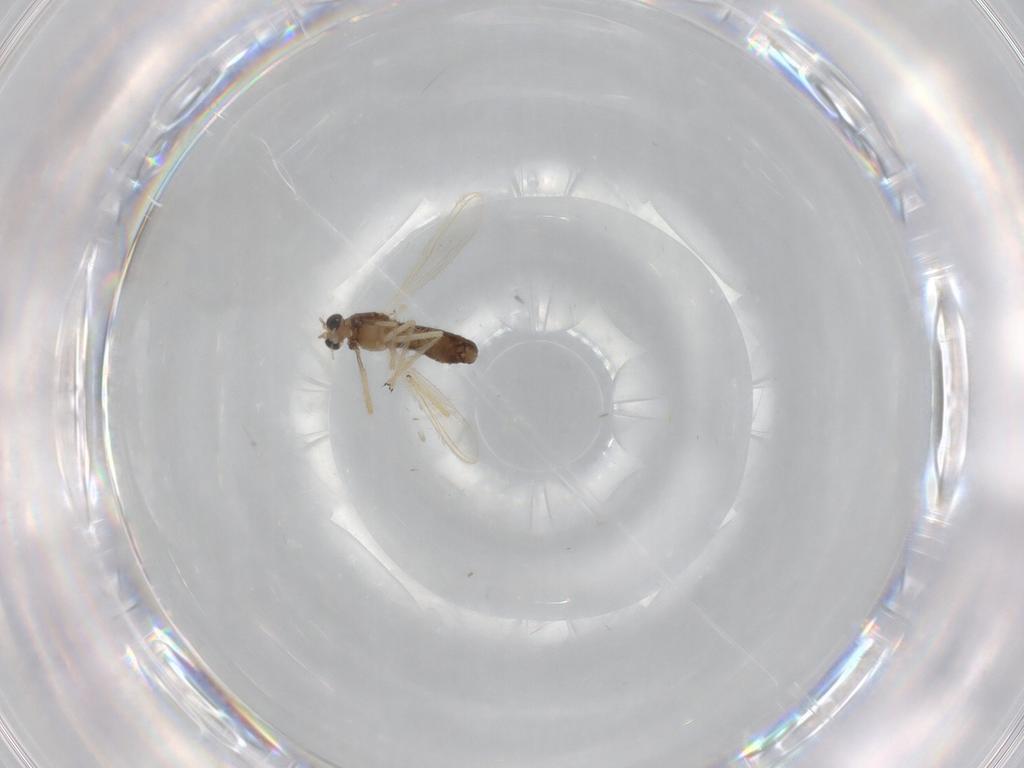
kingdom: Animalia
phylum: Arthropoda
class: Insecta
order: Diptera
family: Chironomidae
